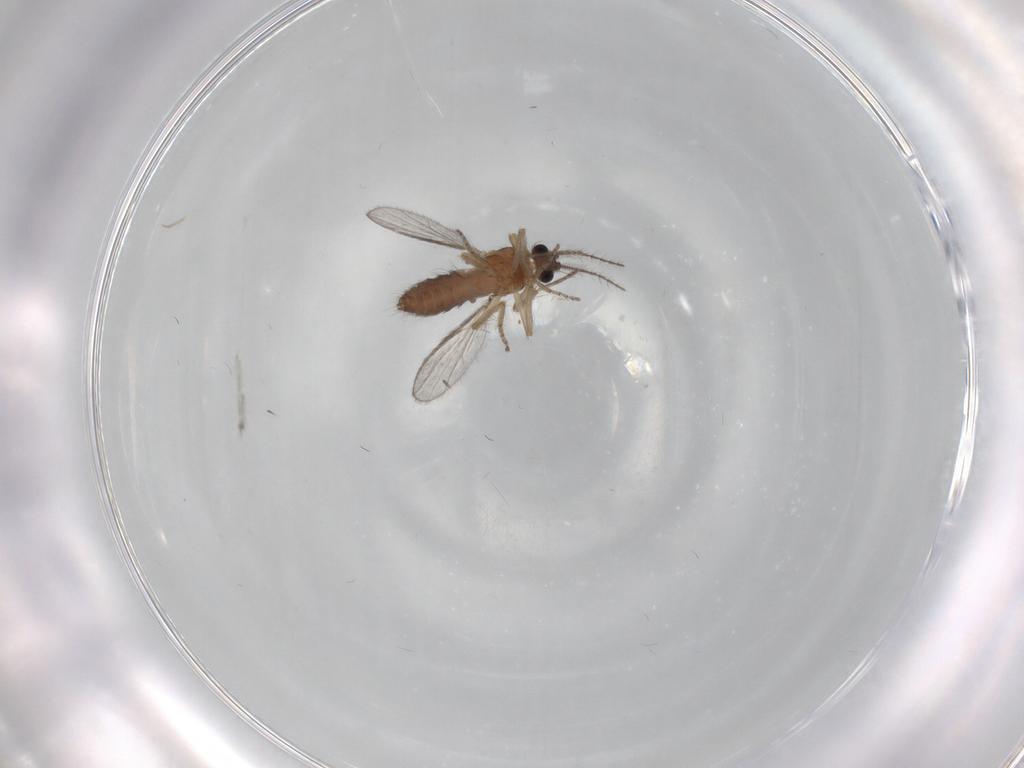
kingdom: Animalia
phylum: Arthropoda
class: Insecta
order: Diptera
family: Ceratopogonidae
